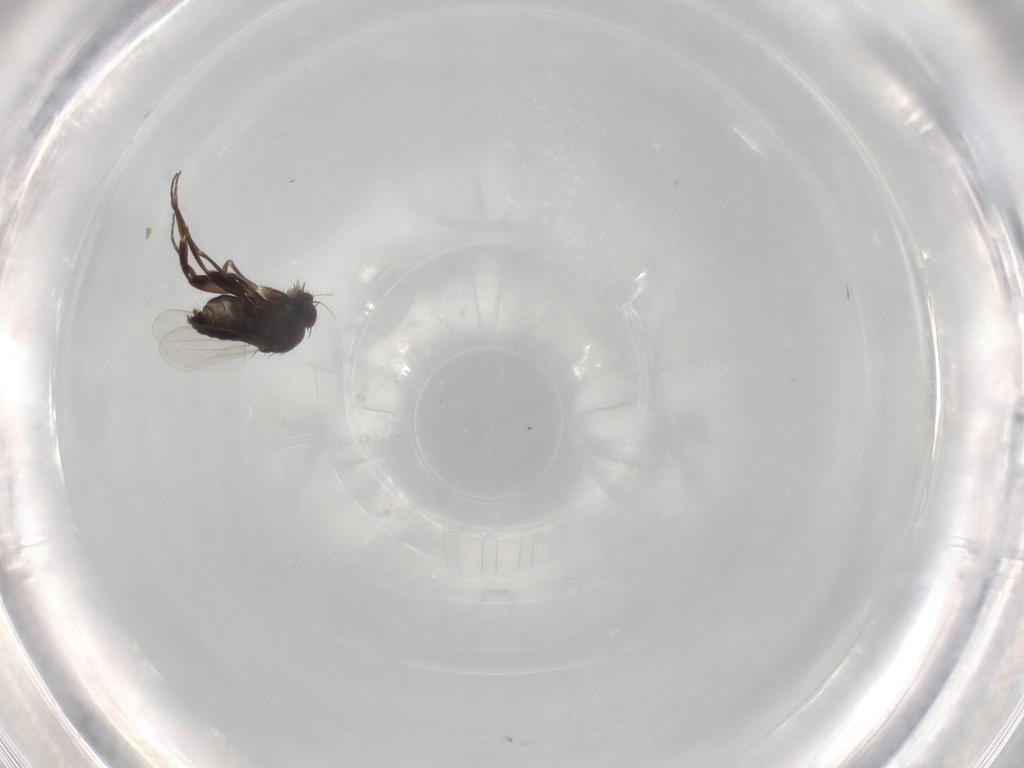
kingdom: Animalia
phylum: Arthropoda
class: Insecta
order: Diptera
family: Phoridae
